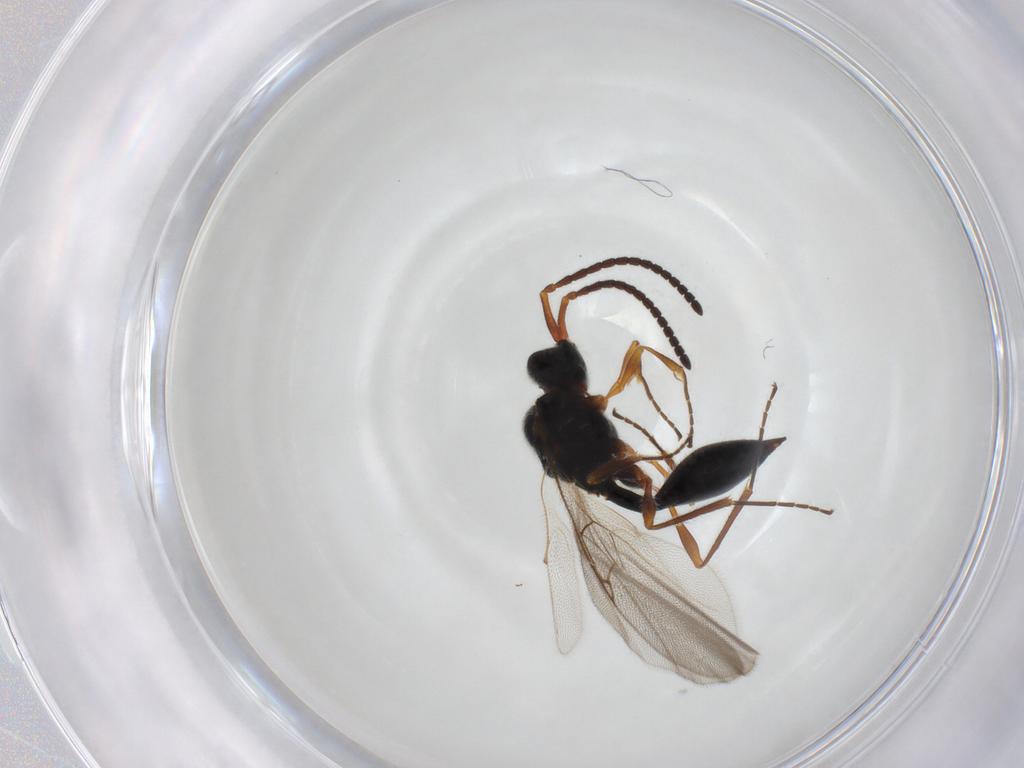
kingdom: Animalia
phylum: Arthropoda
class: Insecta
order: Hymenoptera
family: Diapriidae
